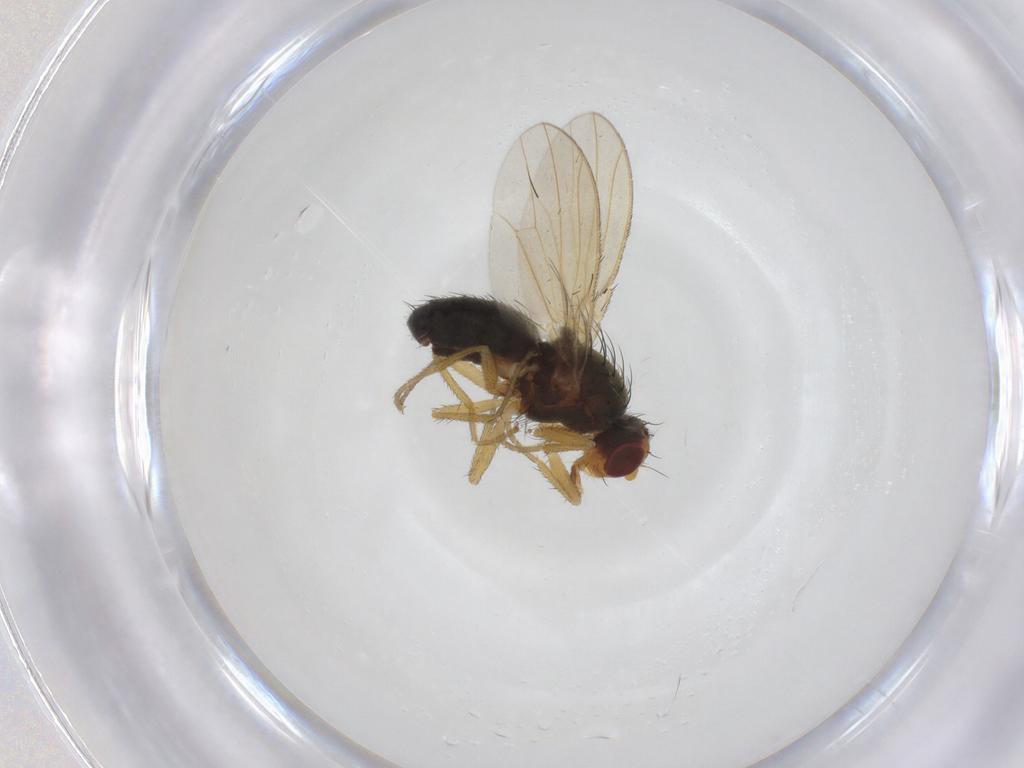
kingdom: Animalia
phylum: Arthropoda
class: Insecta
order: Diptera
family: Heleomyzidae
